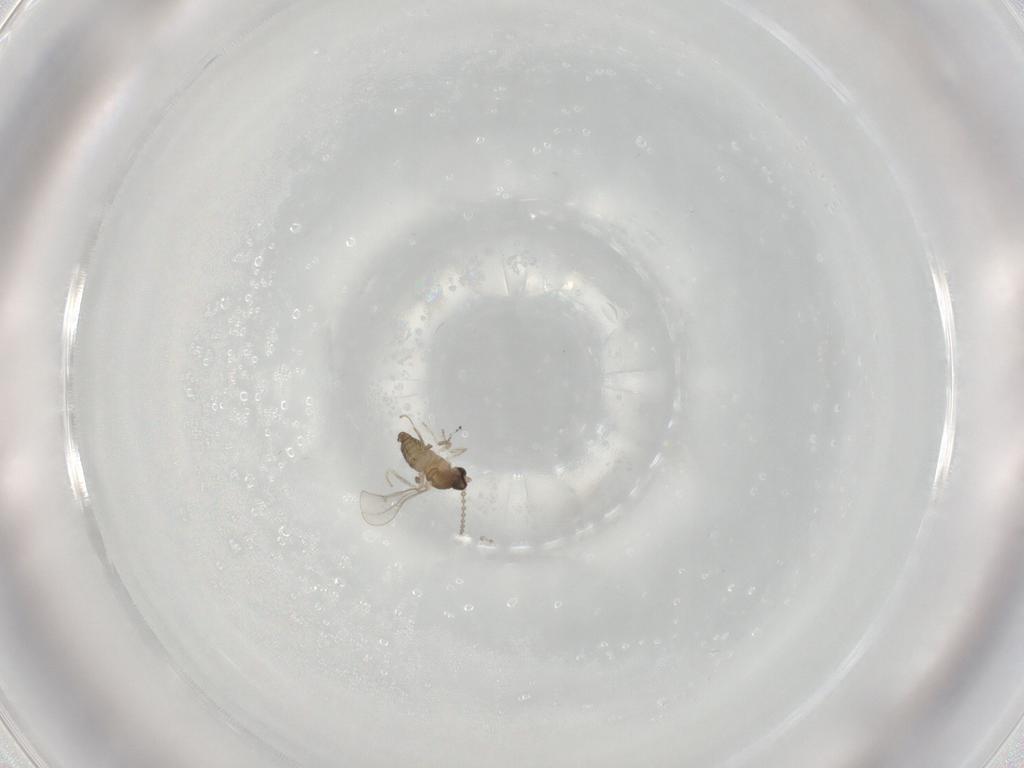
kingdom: Animalia
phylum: Arthropoda
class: Insecta
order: Diptera
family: Cecidomyiidae
